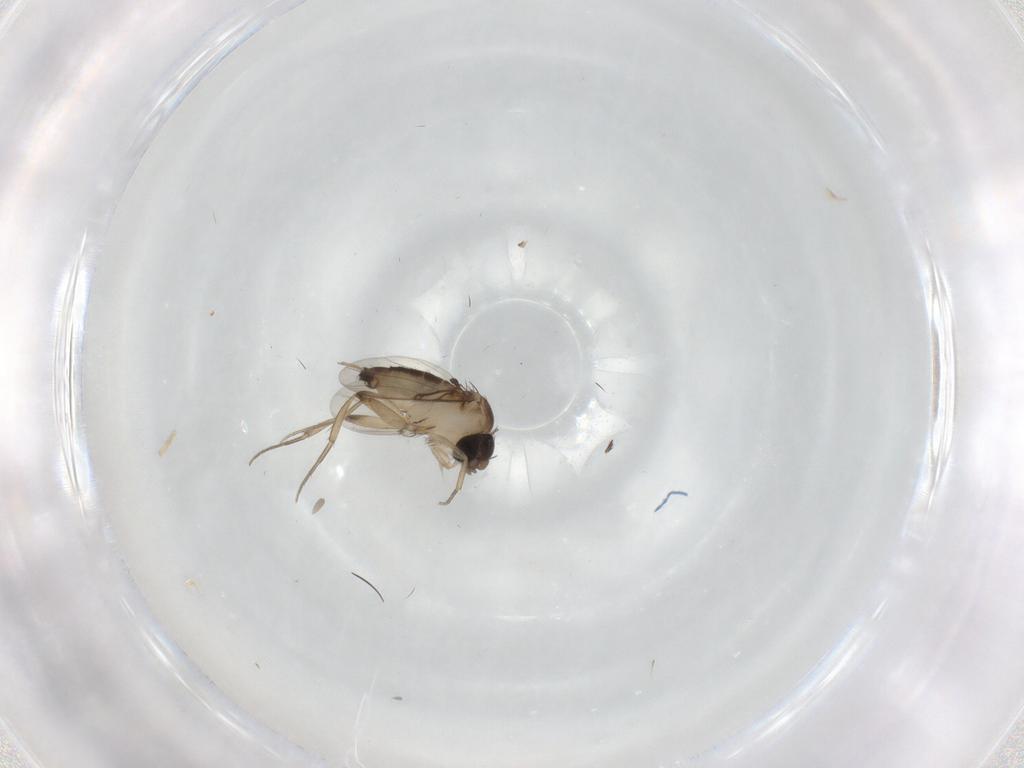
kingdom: Animalia
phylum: Arthropoda
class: Insecta
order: Diptera
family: Phoridae
